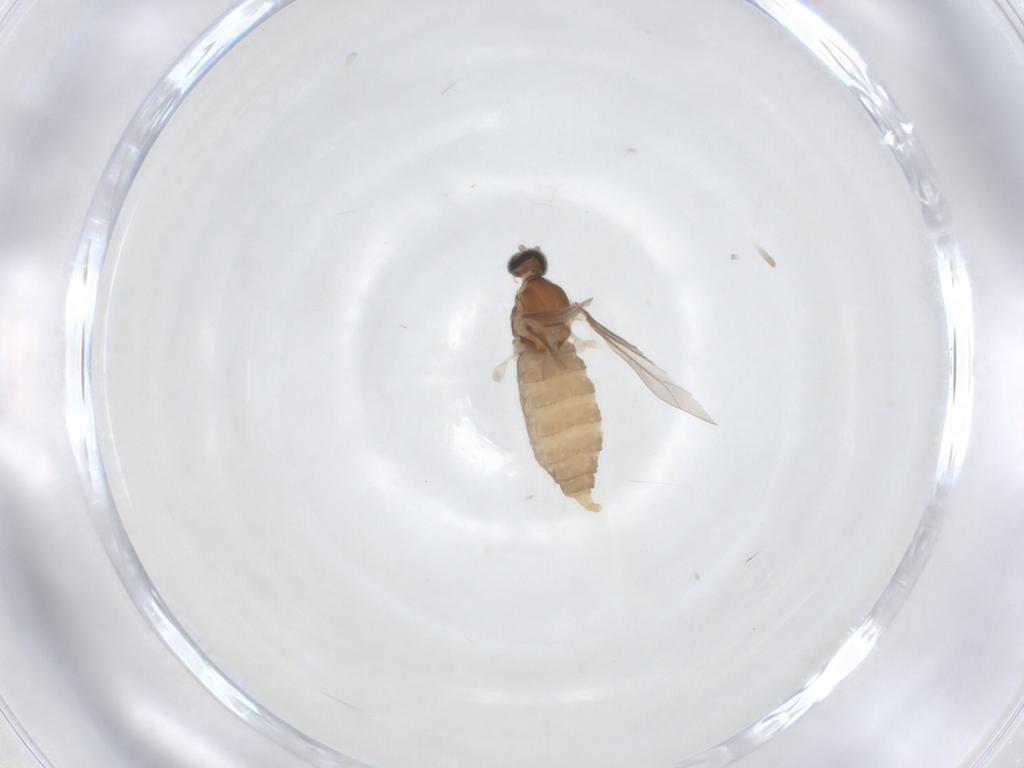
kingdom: Animalia
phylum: Arthropoda
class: Insecta
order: Diptera
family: Cecidomyiidae
